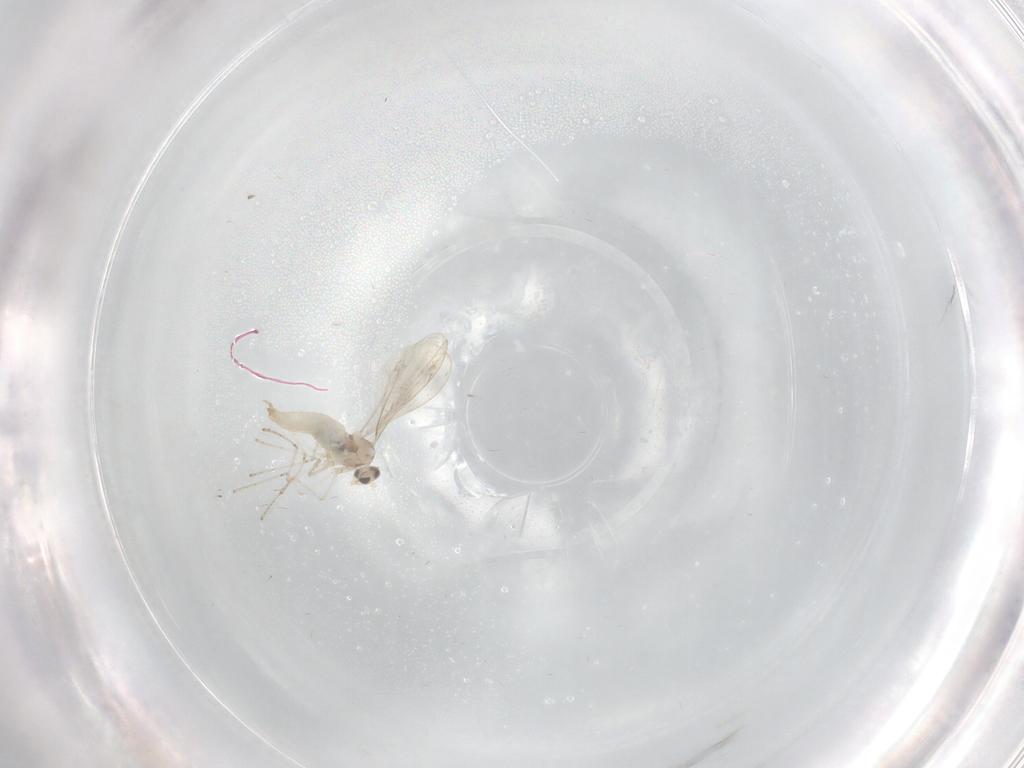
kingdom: Animalia
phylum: Arthropoda
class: Insecta
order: Diptera
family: Cecidomyiidae
